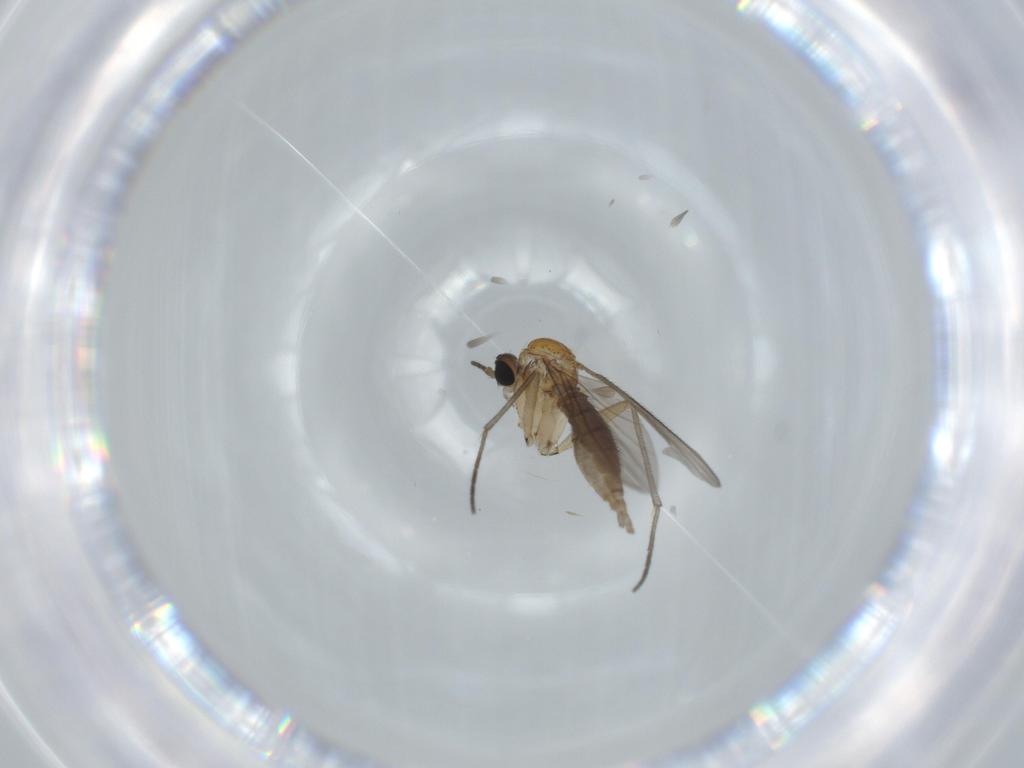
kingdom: Animalia
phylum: Arthropoda
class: Insecta
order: Diptera
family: Sciaridae
